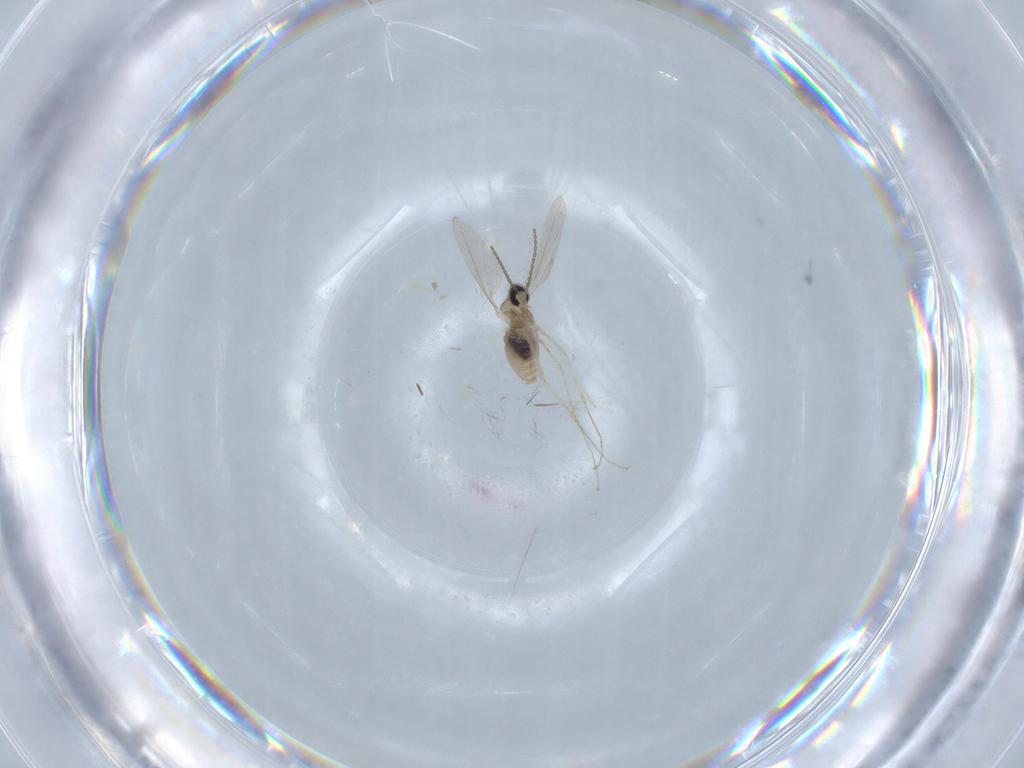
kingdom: Animalia
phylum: Arthropoda
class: Insecta
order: Diptera
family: Phoridae
